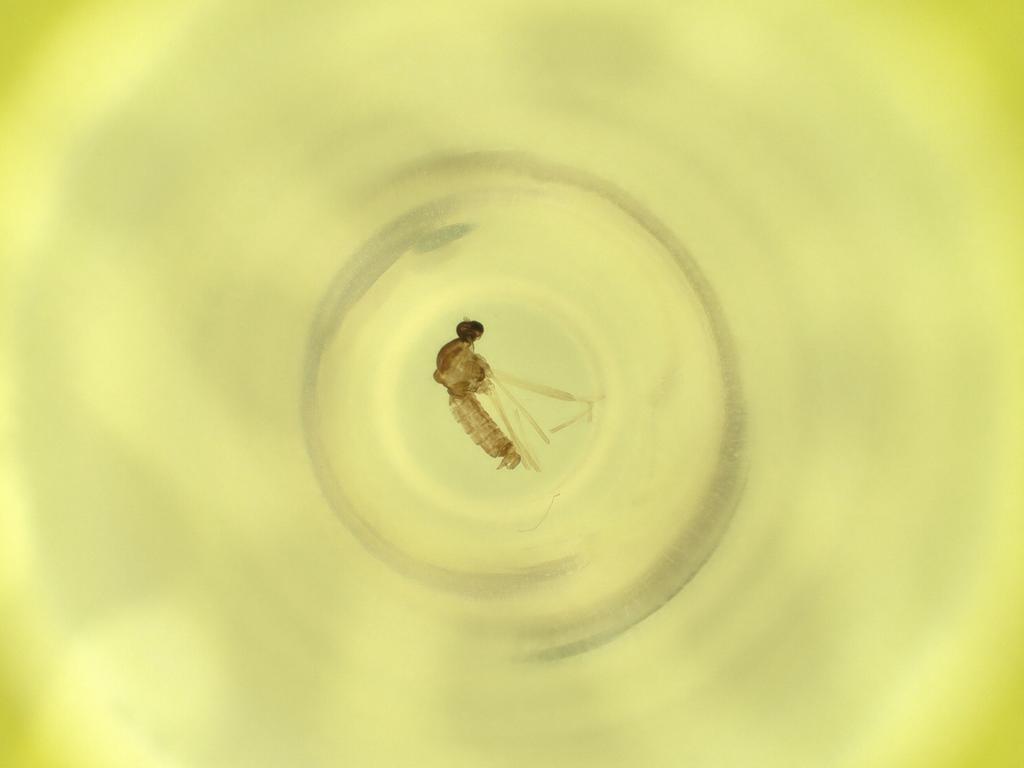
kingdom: Animalia
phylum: Arthropoda
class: Insecta
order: Diptera
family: Cecidomyiidae
